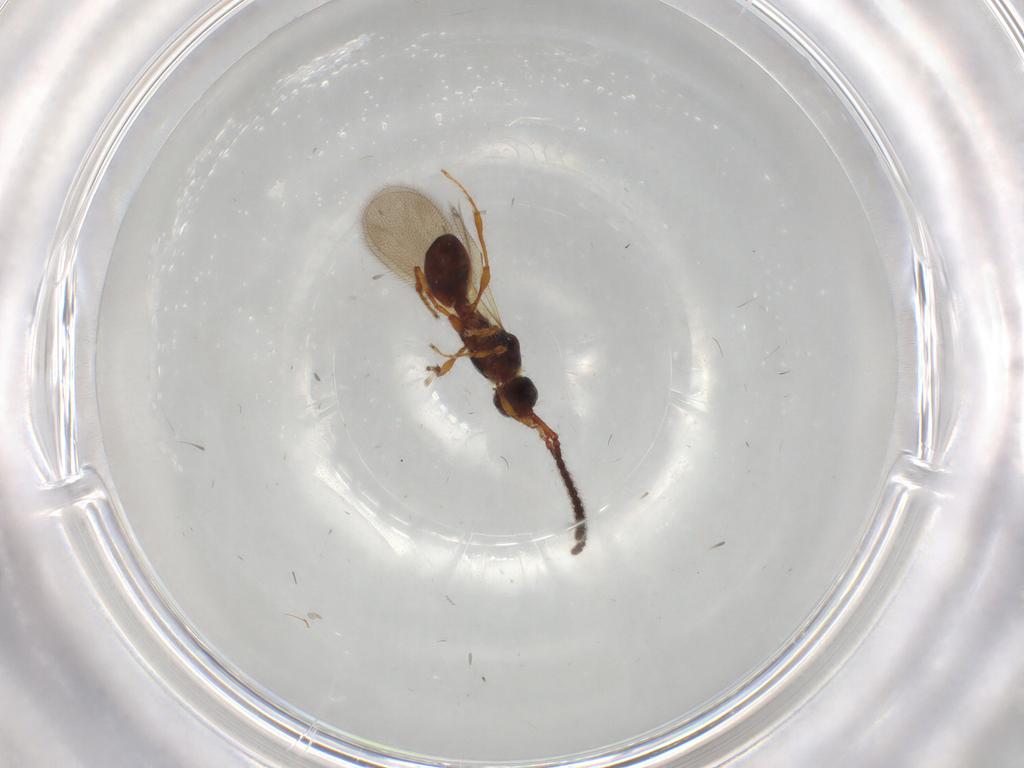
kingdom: Animalia
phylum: Arthropoda
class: Insecta
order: Hymenoptera
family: Diapriidae
